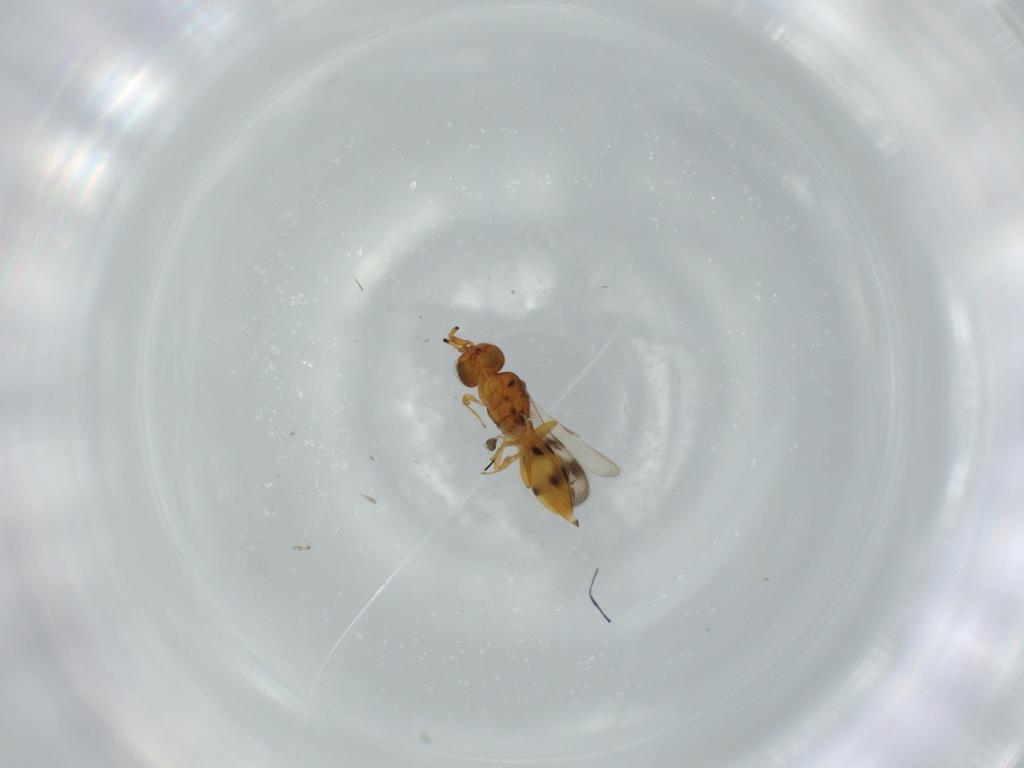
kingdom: Animalia
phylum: Arthropoda
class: Insecta
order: Hymenoptera
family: Scelionidae
